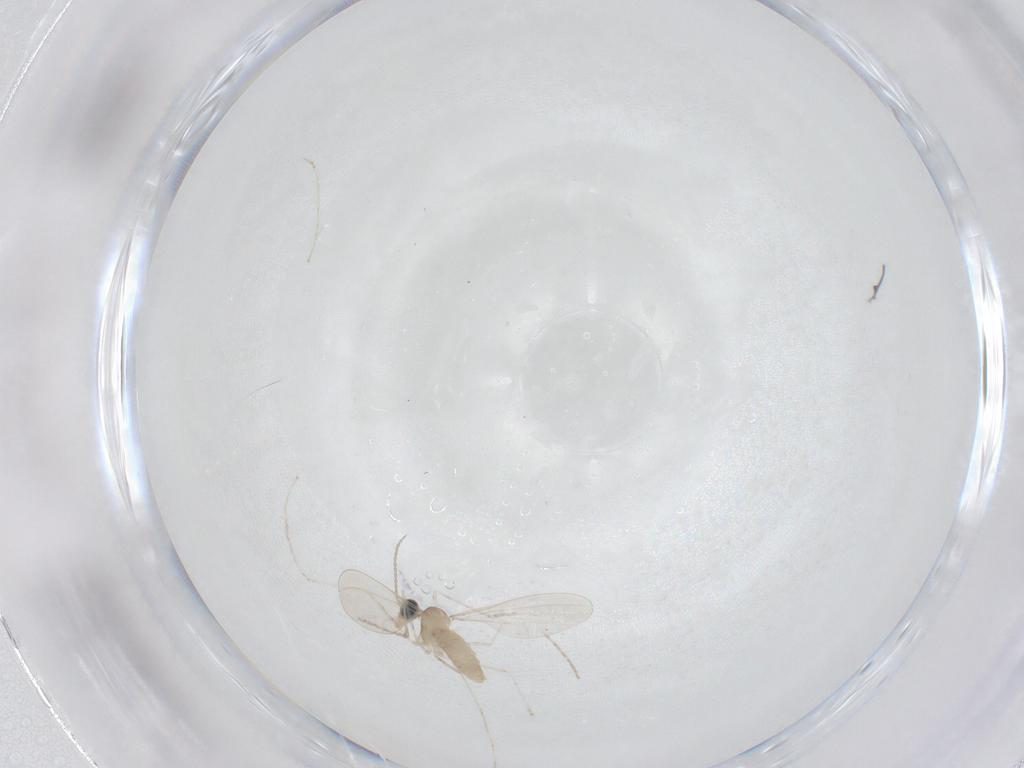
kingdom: Animalia
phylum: Arthropoda
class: Insecta
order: Diptera
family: Cecidomyiidae
